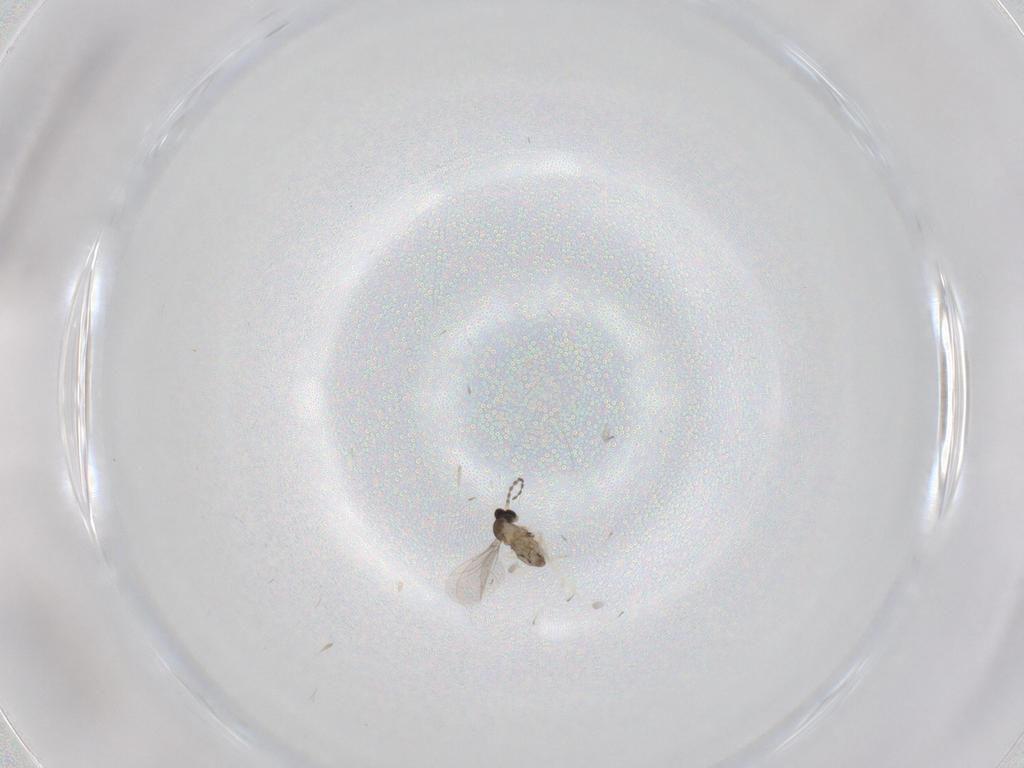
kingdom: Animalia
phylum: Arthropoda
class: Insecta
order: Diptera
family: Cecidomyiidae
